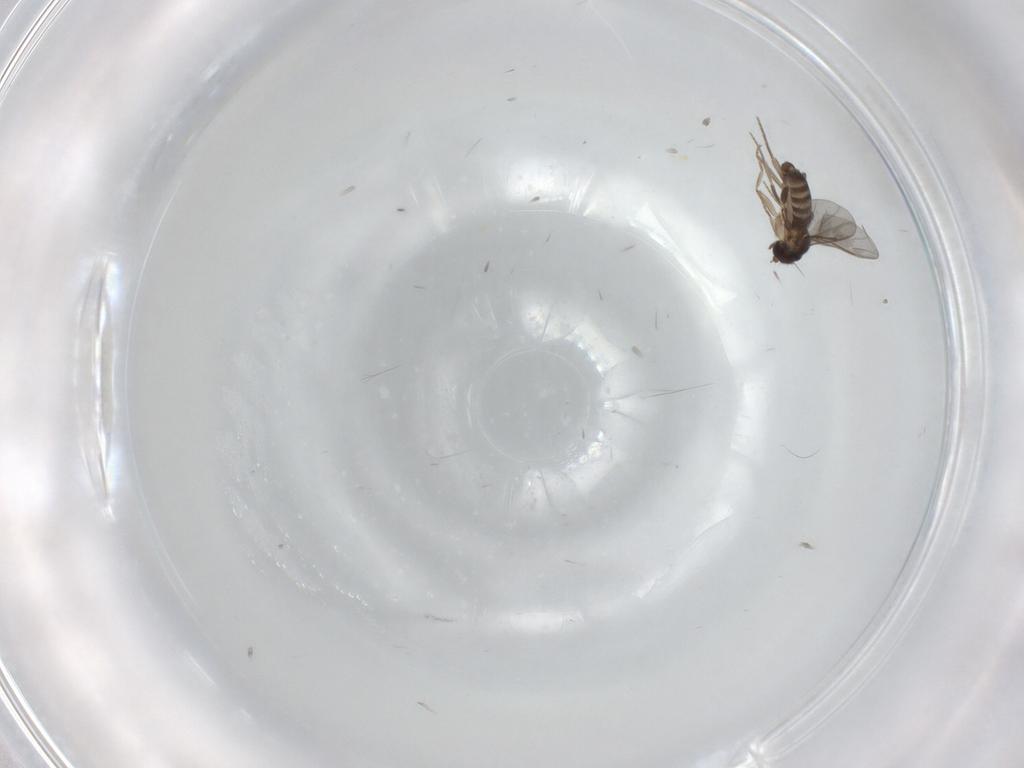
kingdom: Animalia
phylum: Arthropoda
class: Insecta
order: Diptera
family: Phoridae
